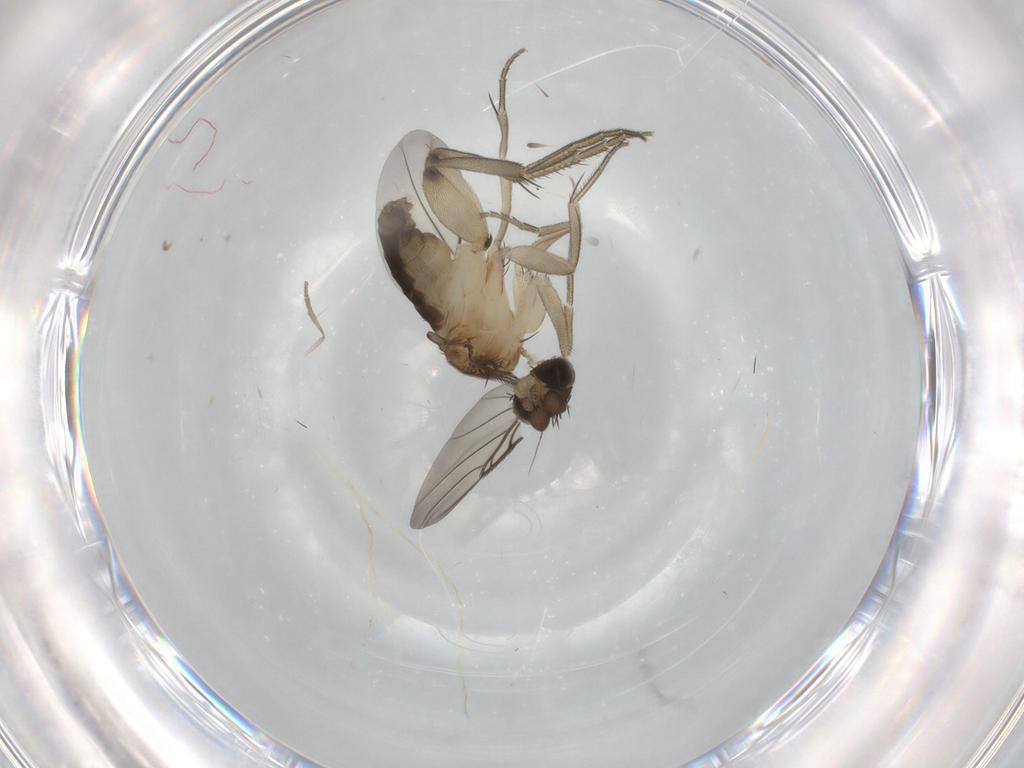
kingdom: Animalia
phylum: Arthropoda
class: Insecta
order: Diptera
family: Phoridae
